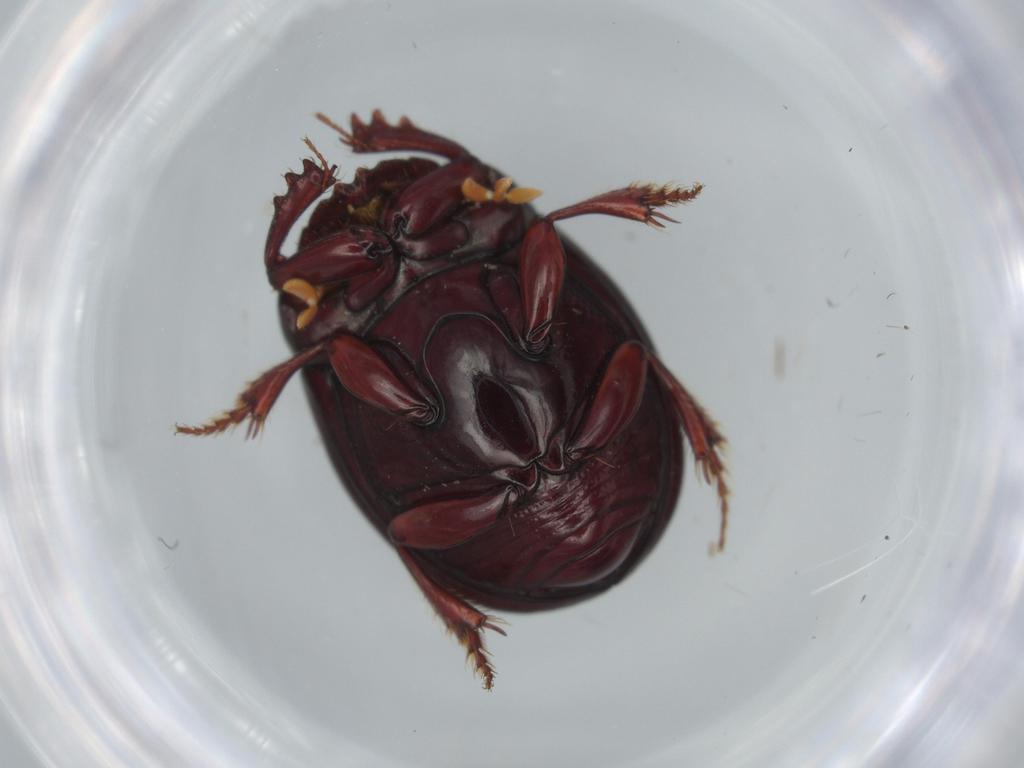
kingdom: Animalia
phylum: Arthropoda
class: Insecta
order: Coleoptera
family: Scarabaeidae
